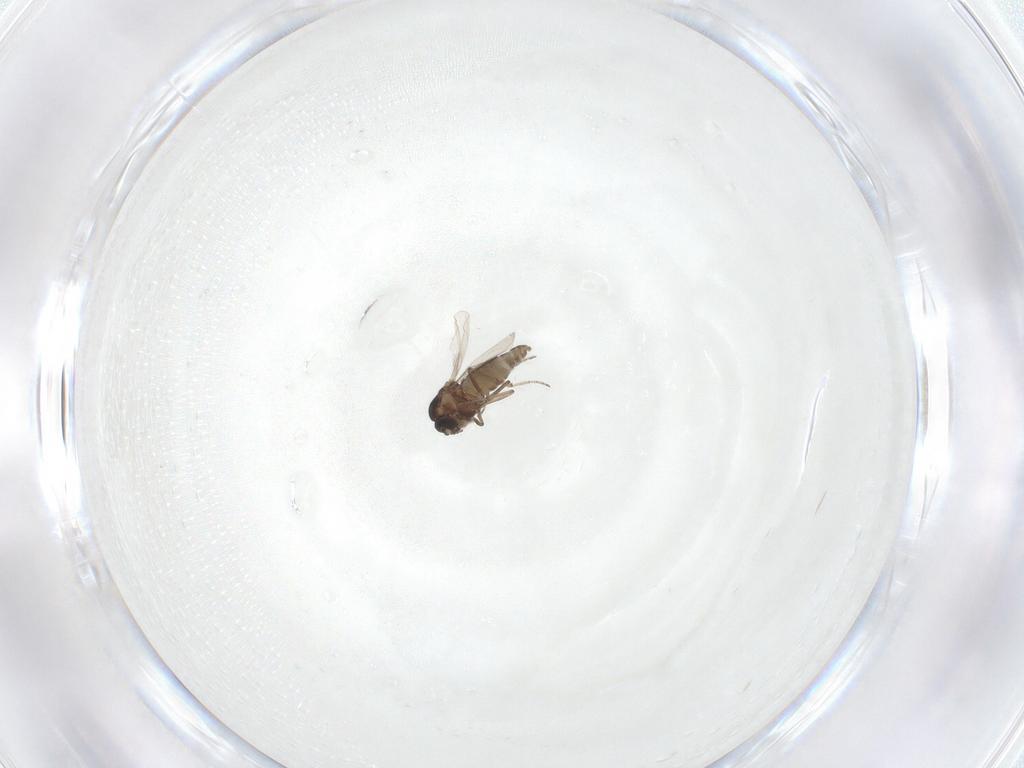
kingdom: Animalia
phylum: Arthropoda
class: Insecta
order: Diptera
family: Ceratopogonidae
